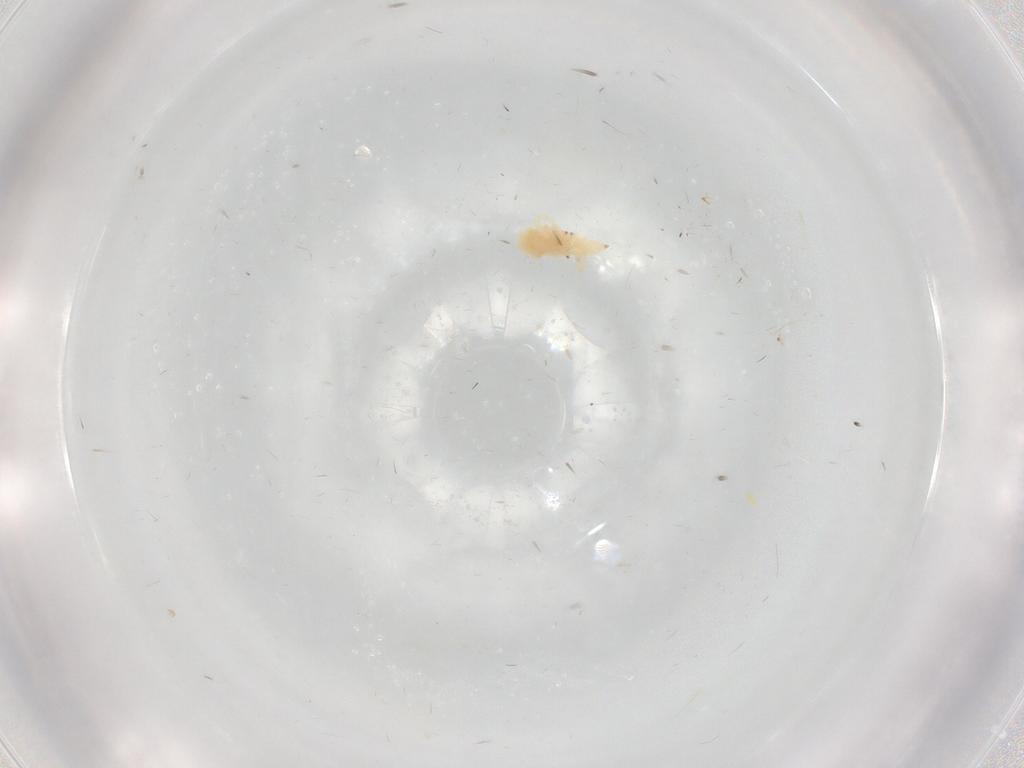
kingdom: Animalia
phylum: Arthropoda
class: Arachnida
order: Trombidiformes
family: Bdellidae
